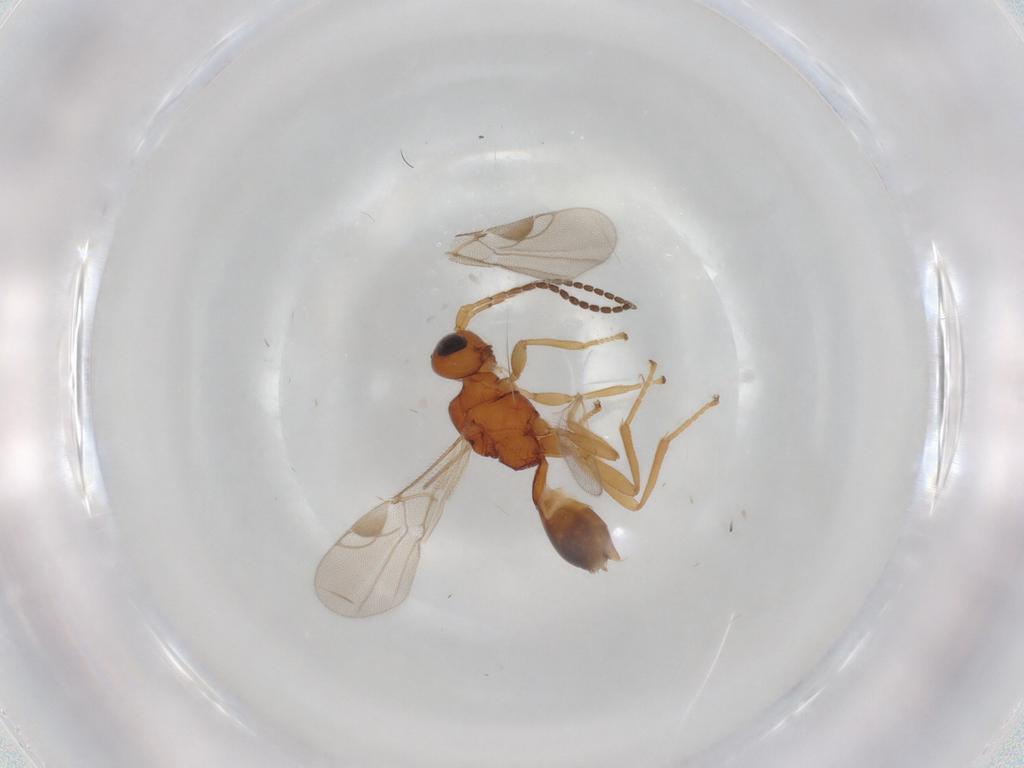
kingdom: Animalia
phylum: Arthropoda
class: Insecta
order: Hymenoptera
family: Braconidae
